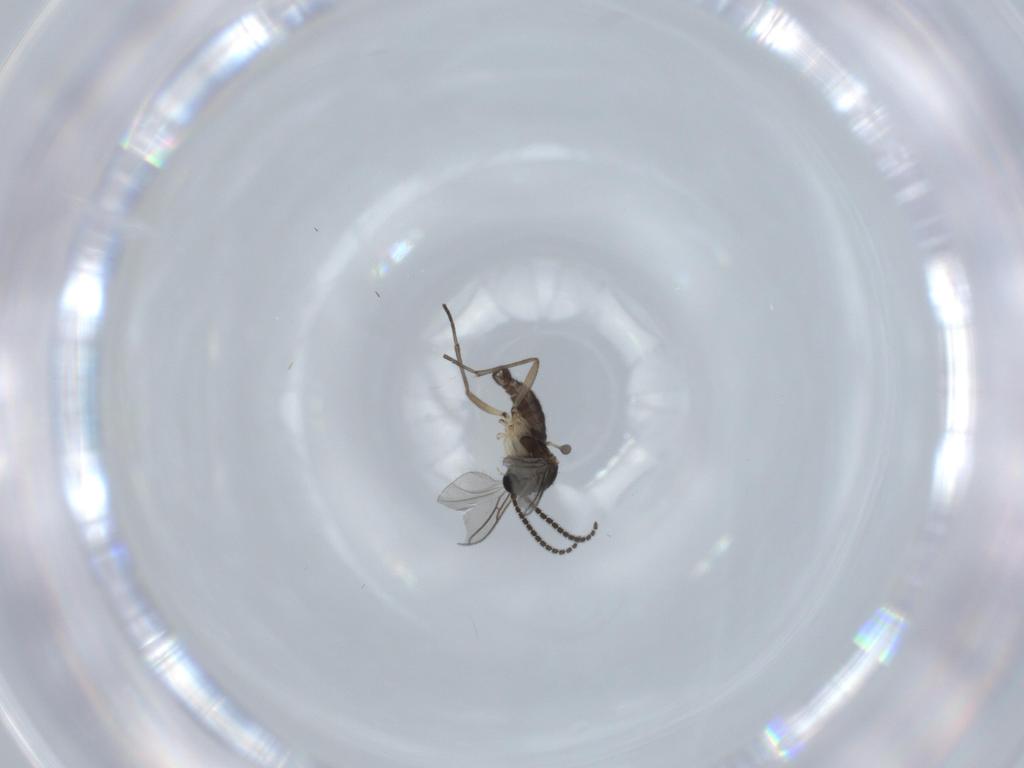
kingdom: Animalia
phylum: Arthropoda
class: Insecta
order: Diptera
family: Sciaridae
